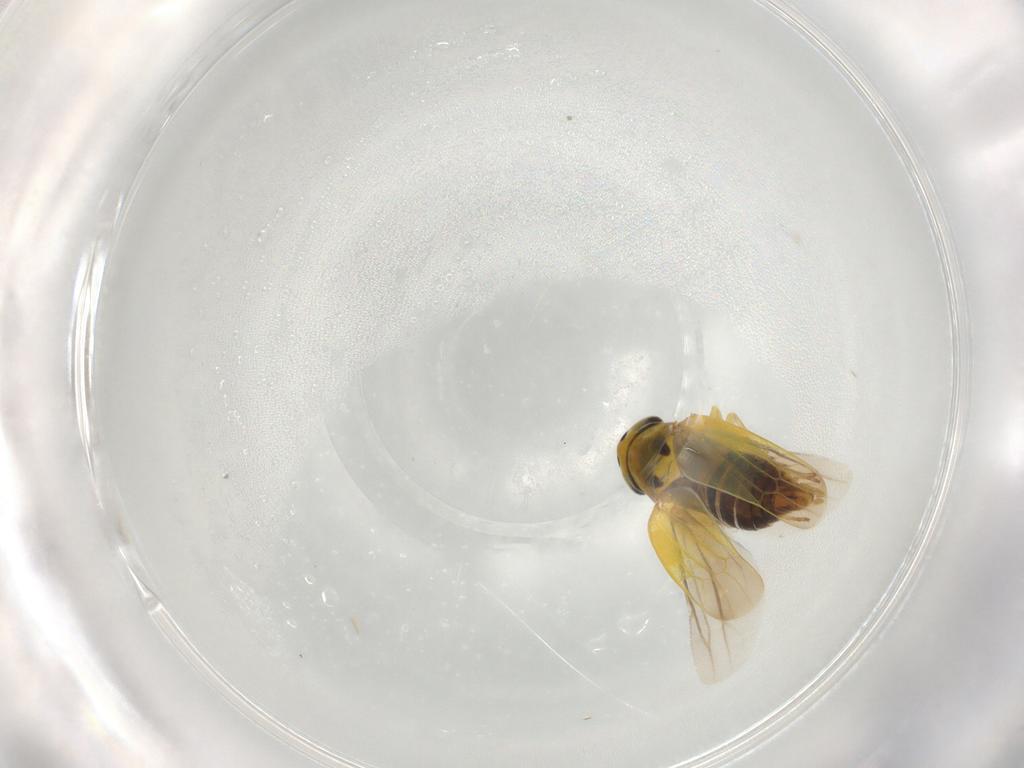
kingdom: Animalia
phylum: Arthropoda
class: Insecta
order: Hemiptera
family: Cicadellidae
